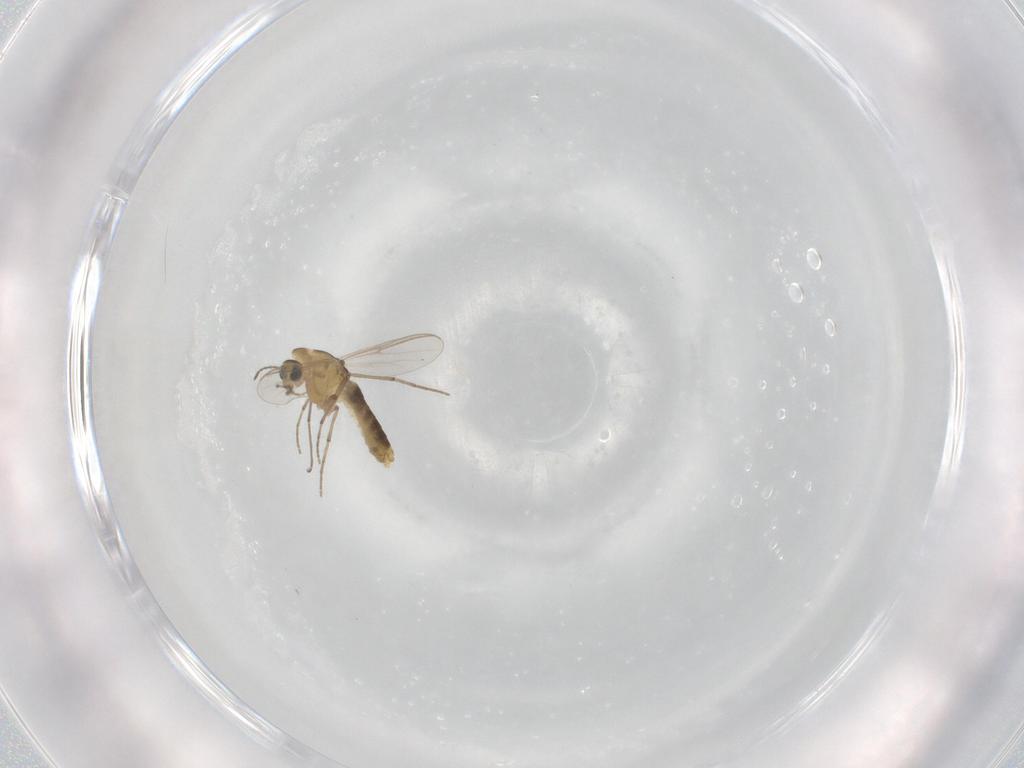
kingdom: Animalia
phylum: Arthropoda
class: Insecta
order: Diptera
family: Chironomidae
